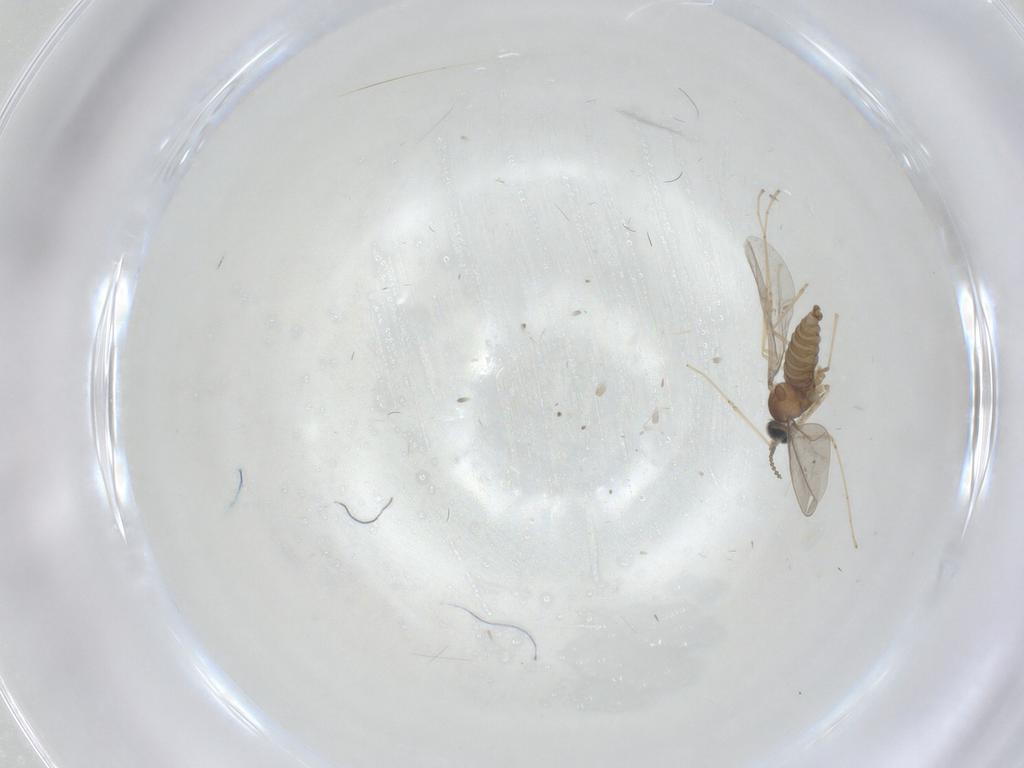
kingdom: Animalia
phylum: Arthropoda
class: Insecta
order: Diptera
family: Cecidomyiidae
